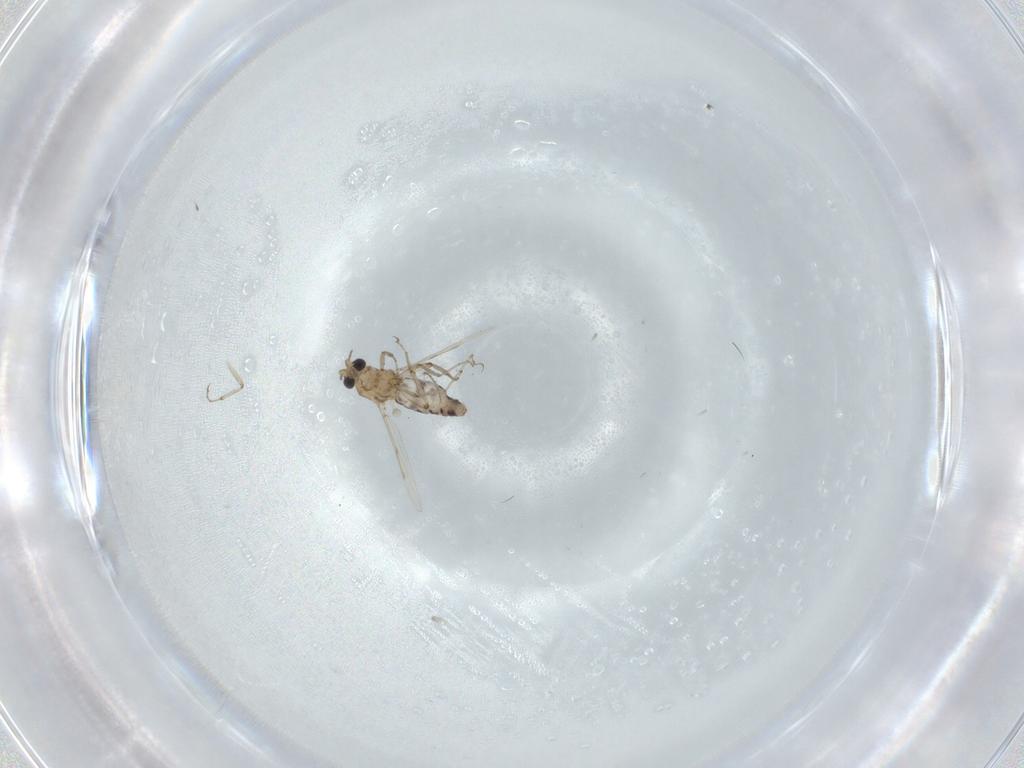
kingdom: Animalia
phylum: Arthropoda
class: Insecta
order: Diptera
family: Ceratopogonidae
